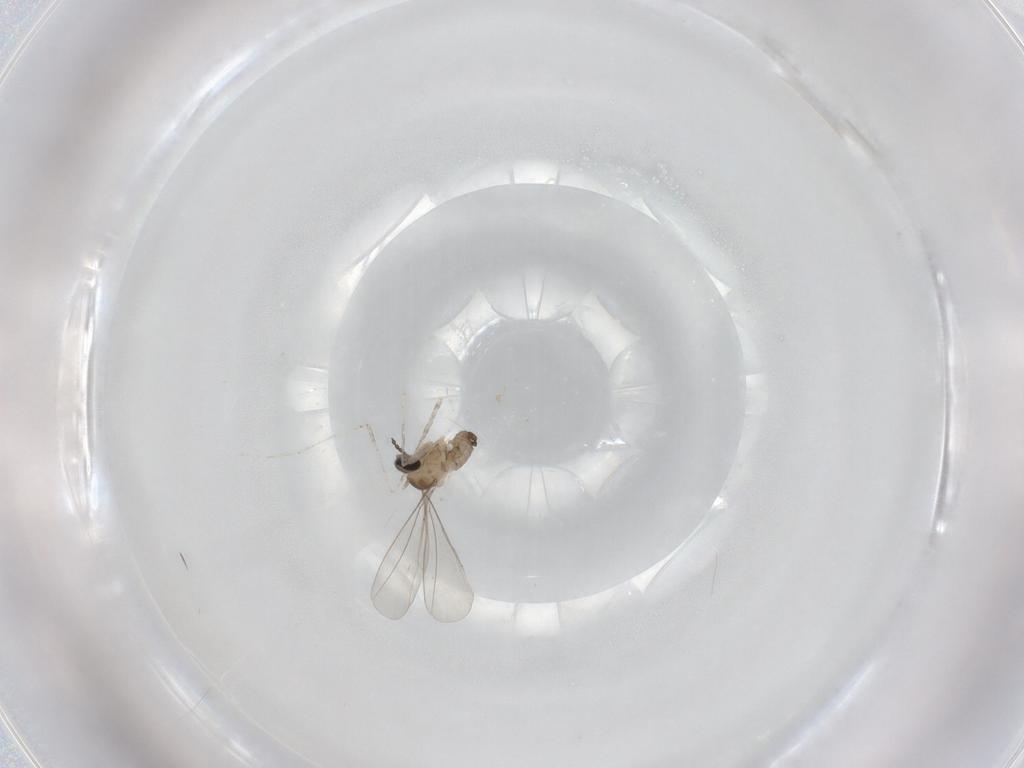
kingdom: Animalia
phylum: Arthropoda
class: Insecta
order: Diptera
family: Cecidomyiidae
